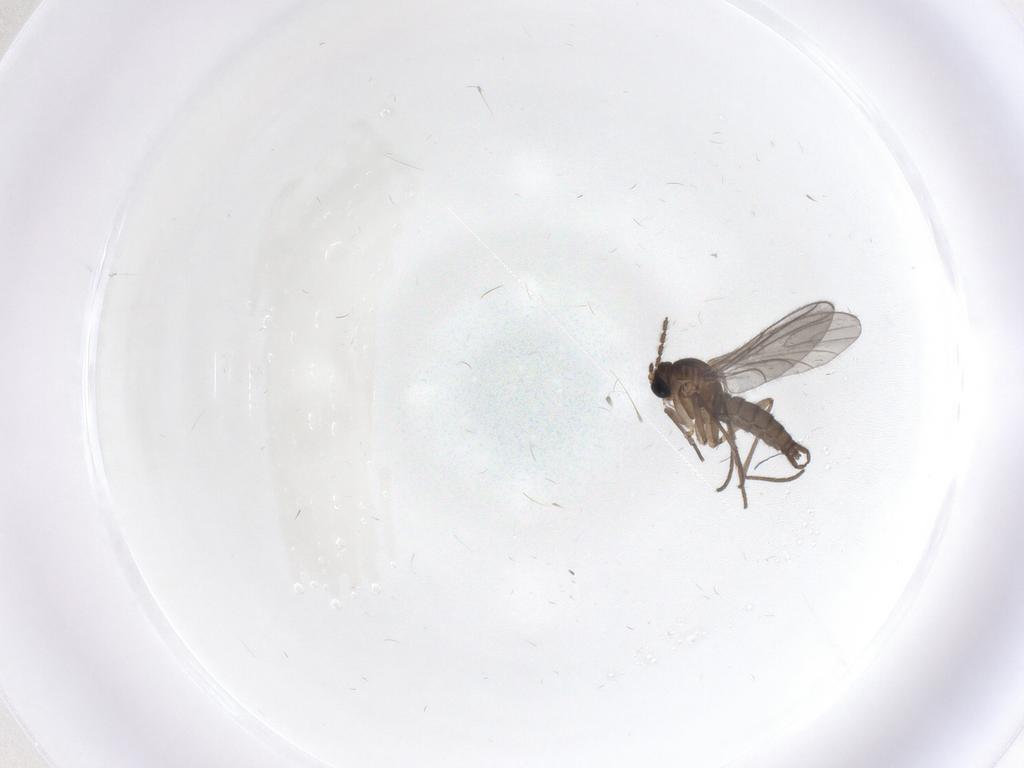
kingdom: Animalia
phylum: Arthropoda
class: Insecta
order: Diptera
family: Sciaridae
